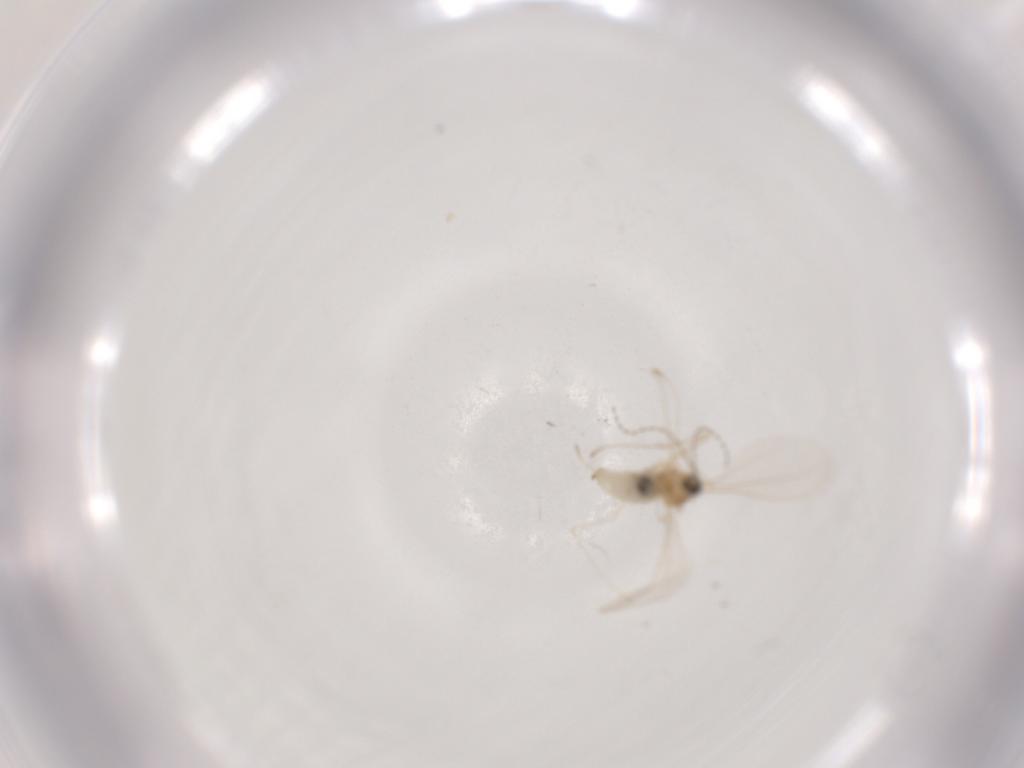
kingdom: Animalia
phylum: Arthropoda
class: Insecta
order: Diptera
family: Cecidomyiidae
